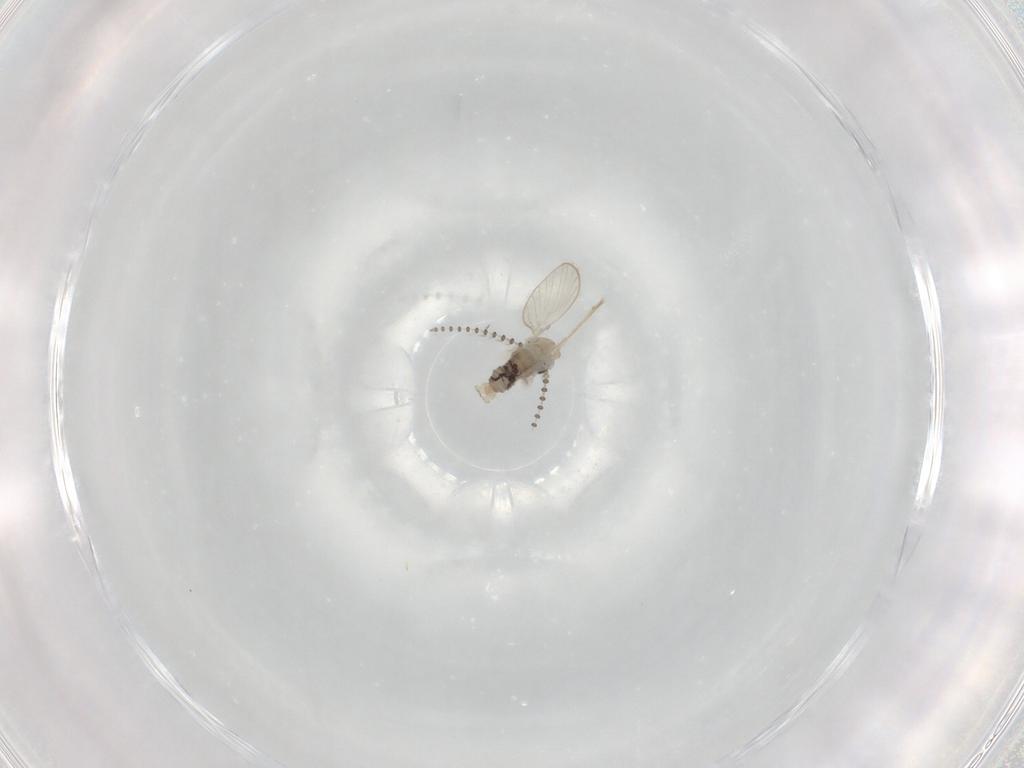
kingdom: Animalia
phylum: Arthropoda
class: Insecta
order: Diptera
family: Psychodidae
